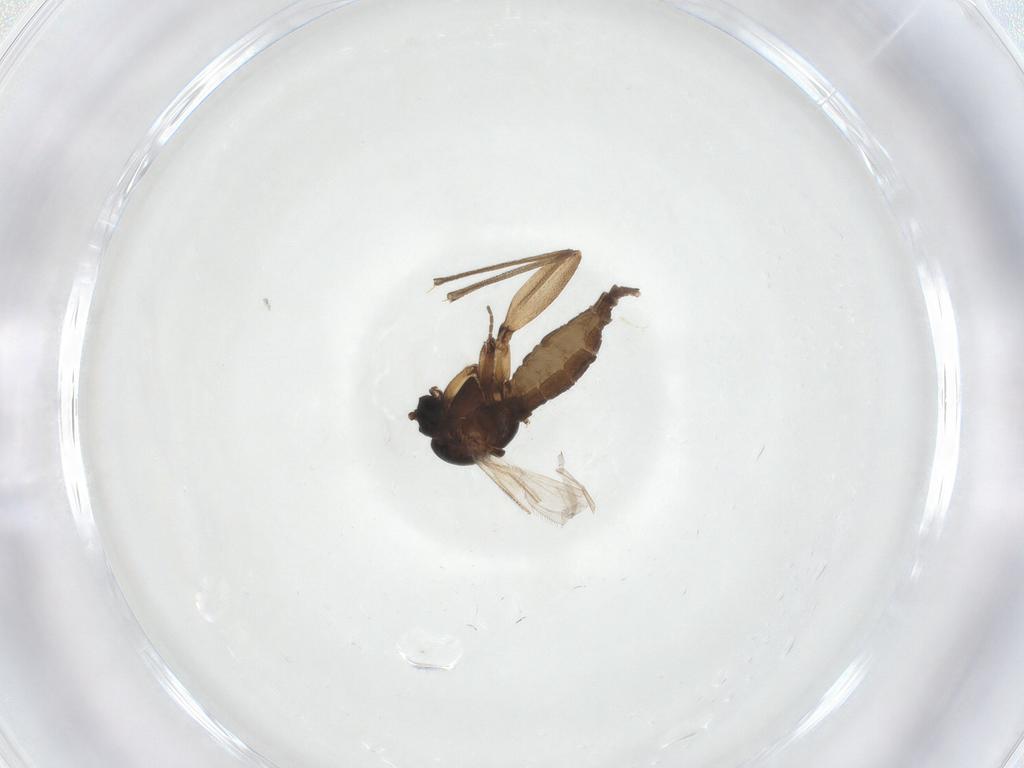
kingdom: Animalia
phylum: Arthropoda
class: Insecta
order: Diptera
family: Sciaridae
